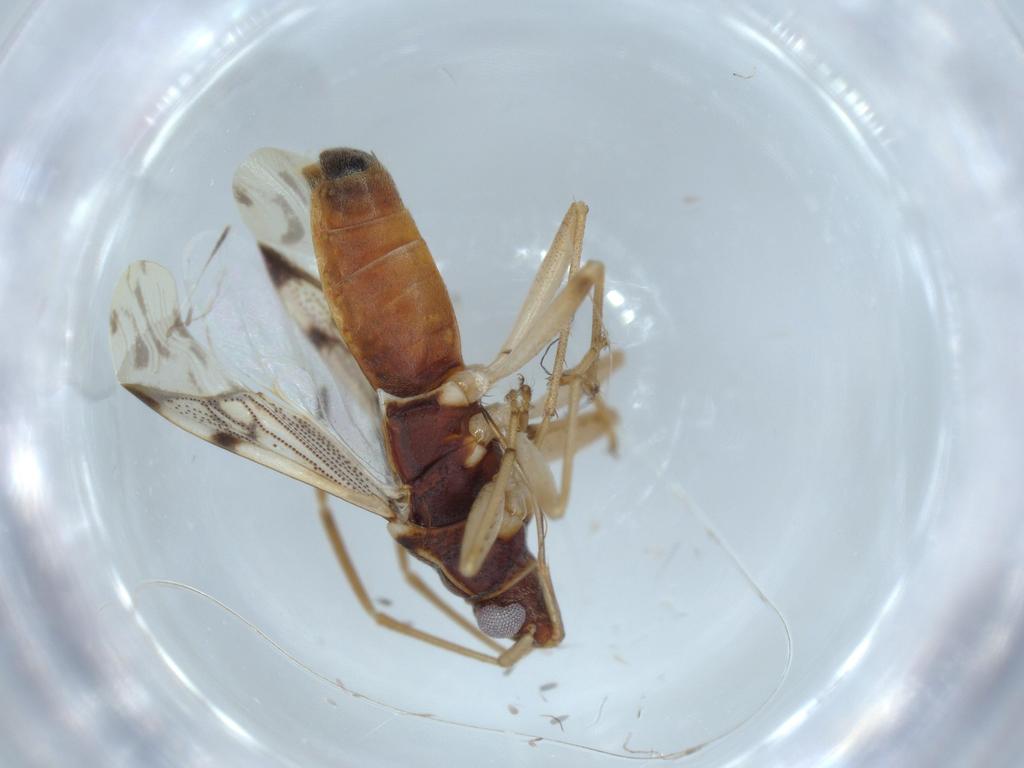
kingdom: Animalia
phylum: Arthropoda
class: Insecta
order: Hemiptera
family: Rhyparochromidae
